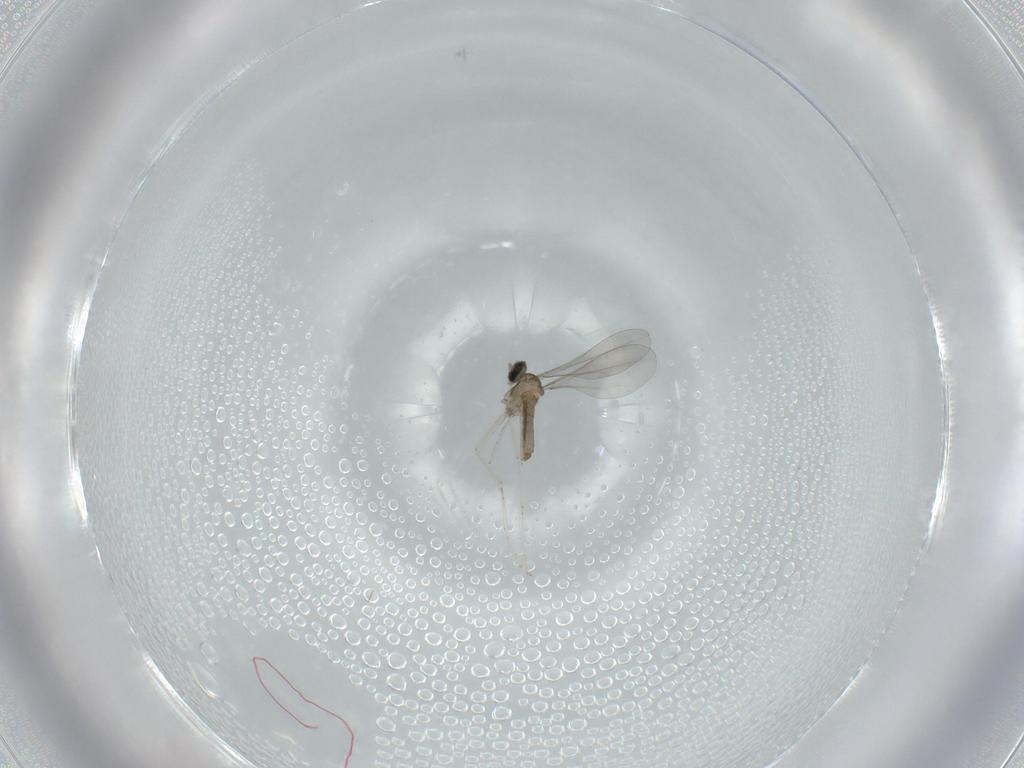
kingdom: Animalia
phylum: Arthropoda
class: Insecta
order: Diptera
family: Cecidomyiidae
